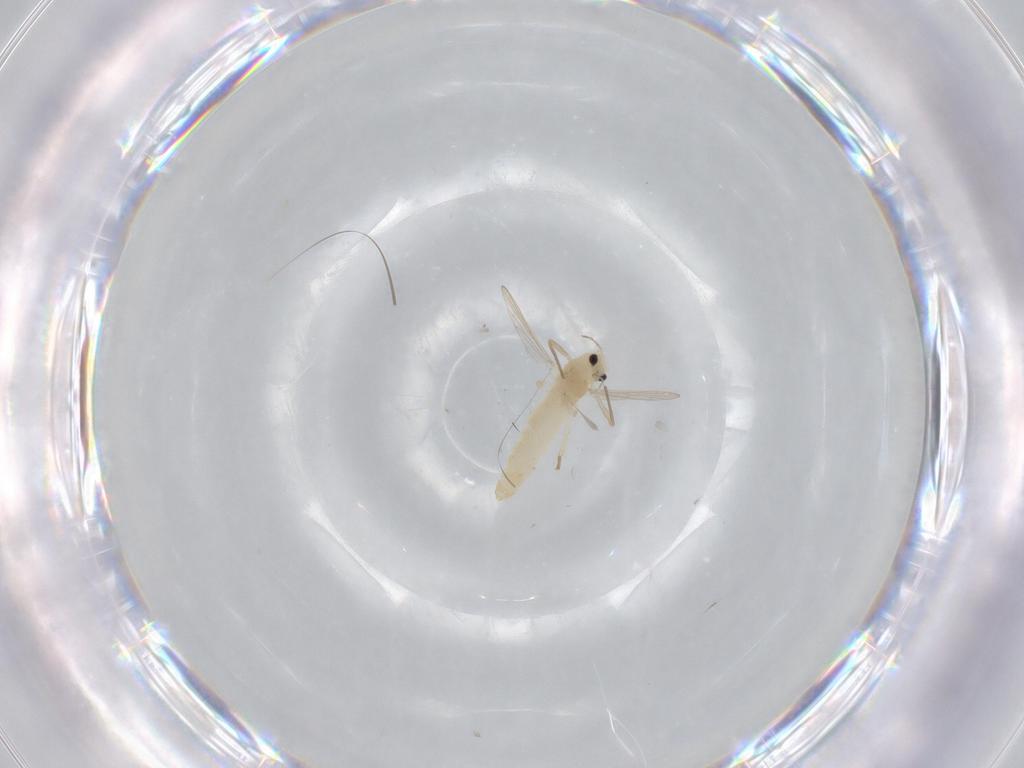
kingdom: Animalia
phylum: Arthropoda
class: Insecta
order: Diptera
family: Chironomidae
